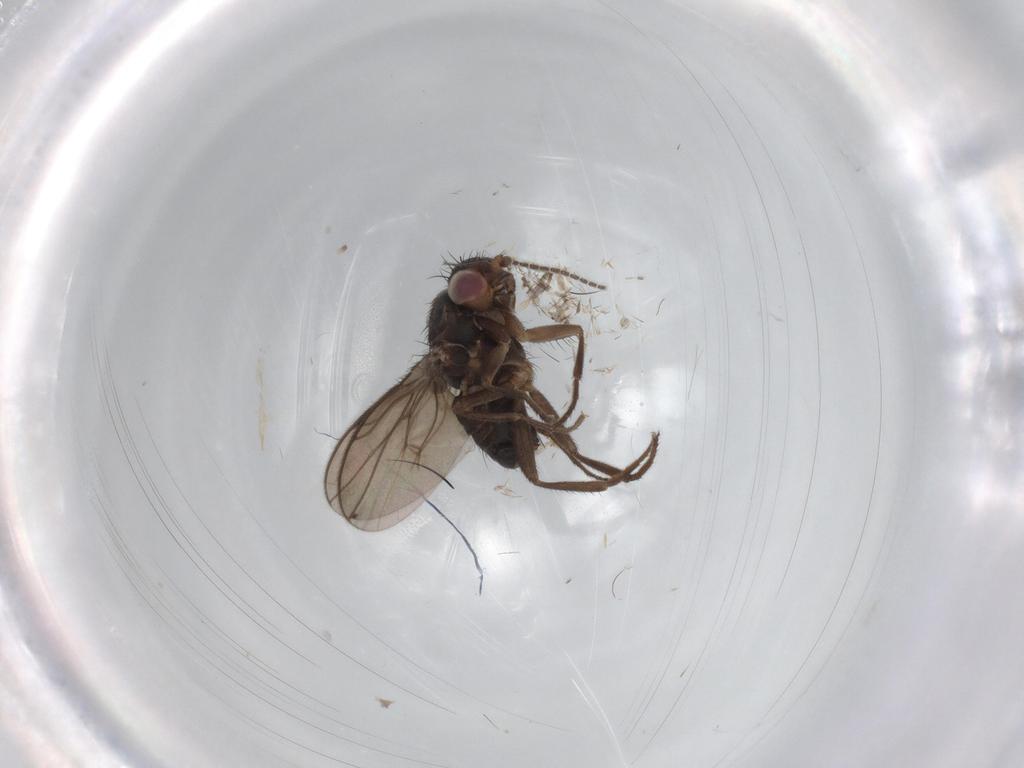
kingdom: Animalia
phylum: Arthropoda
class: Insecta
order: Diptera
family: Sciaridae
